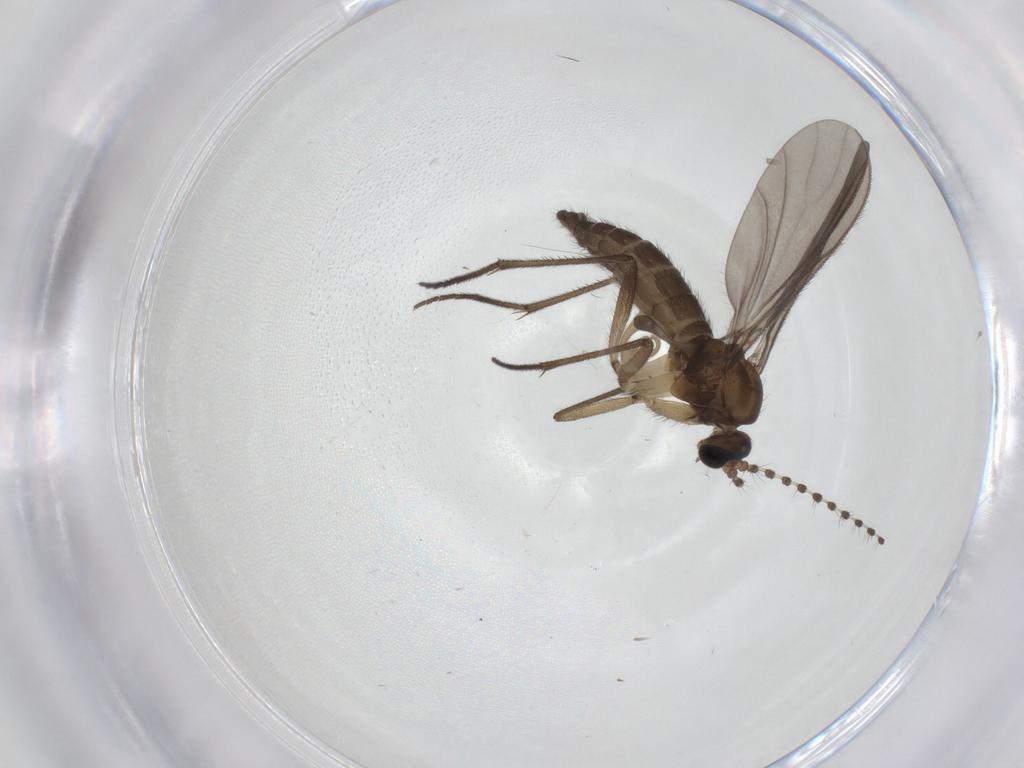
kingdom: Animalia
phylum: Arthropoda
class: Insecta
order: Diptera
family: Sciaridae
